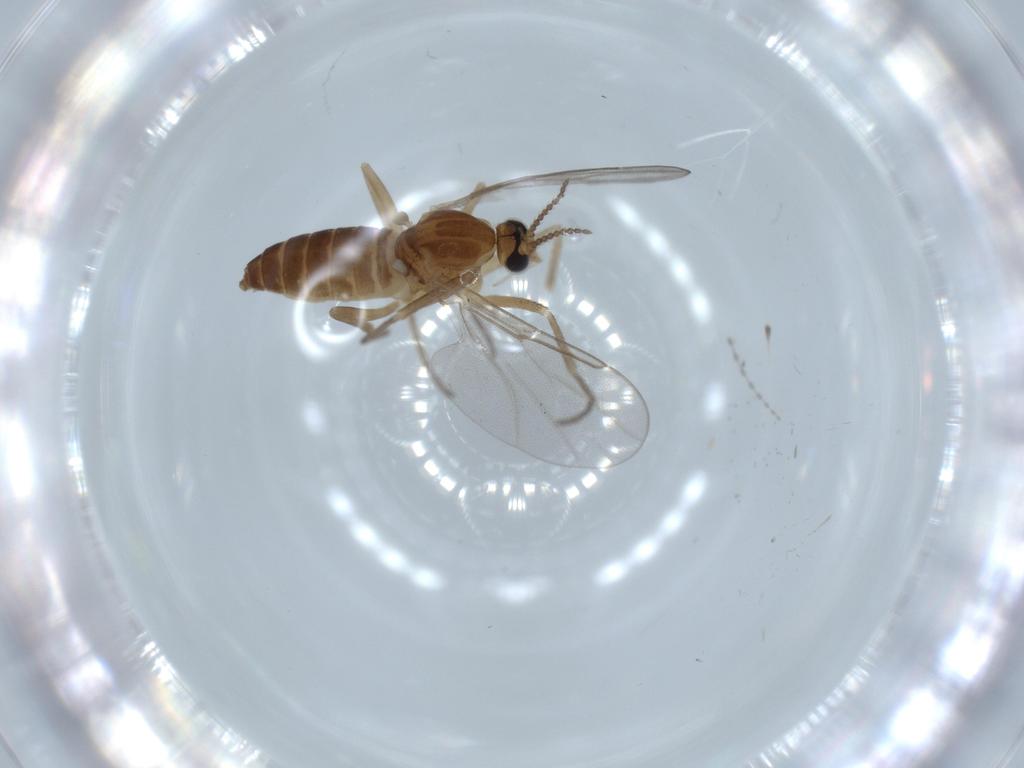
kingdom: Animalia
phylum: Arthropoda
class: Insecta
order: Diptera
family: Cecidomyiidae
